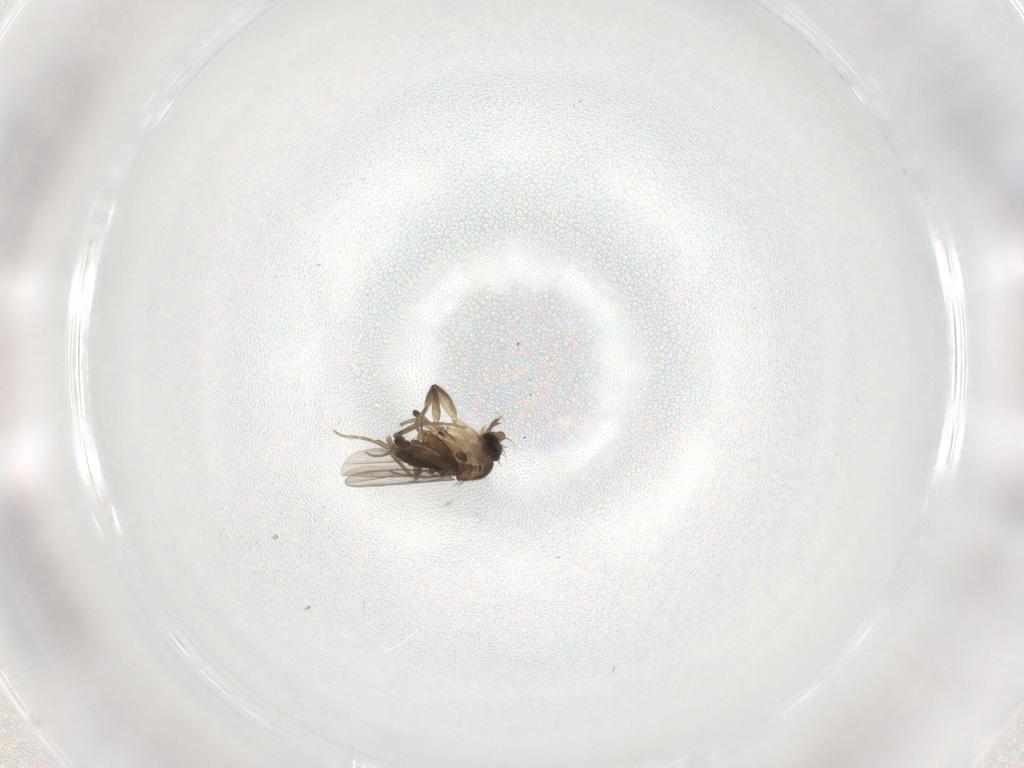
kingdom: Animalia
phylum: Arthropoda
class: Insecta
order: Diptera
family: Phoridae
